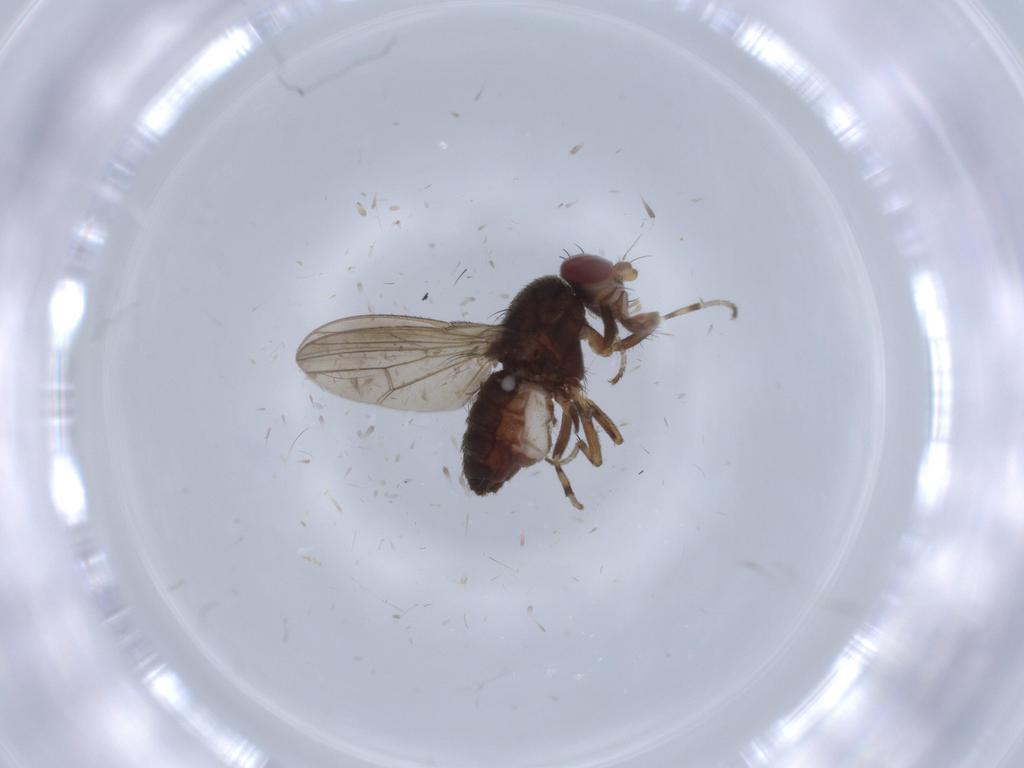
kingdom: Animalia
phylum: Arthropoda
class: Insecta
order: Diptera
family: Heleomyzidae
